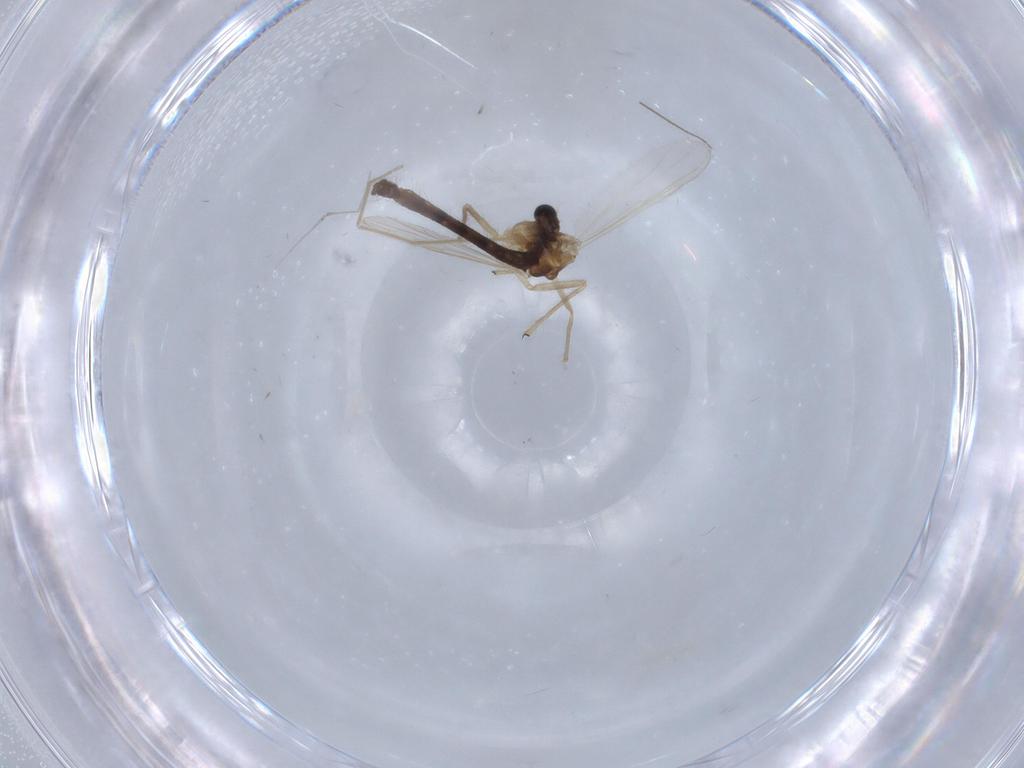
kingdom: Animalia
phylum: Arthropoda
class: Insecta
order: Diptera
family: Chironomidae
